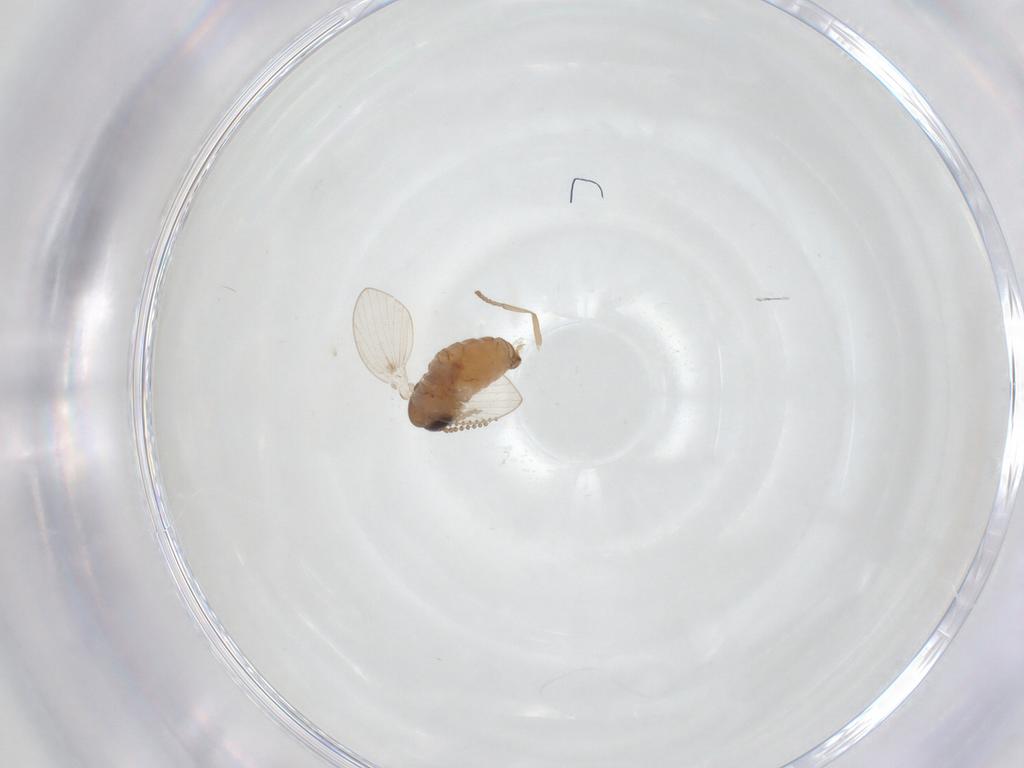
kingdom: Animalia
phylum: Arthropoda
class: Insecta
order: Diptera
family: Psychodidae
